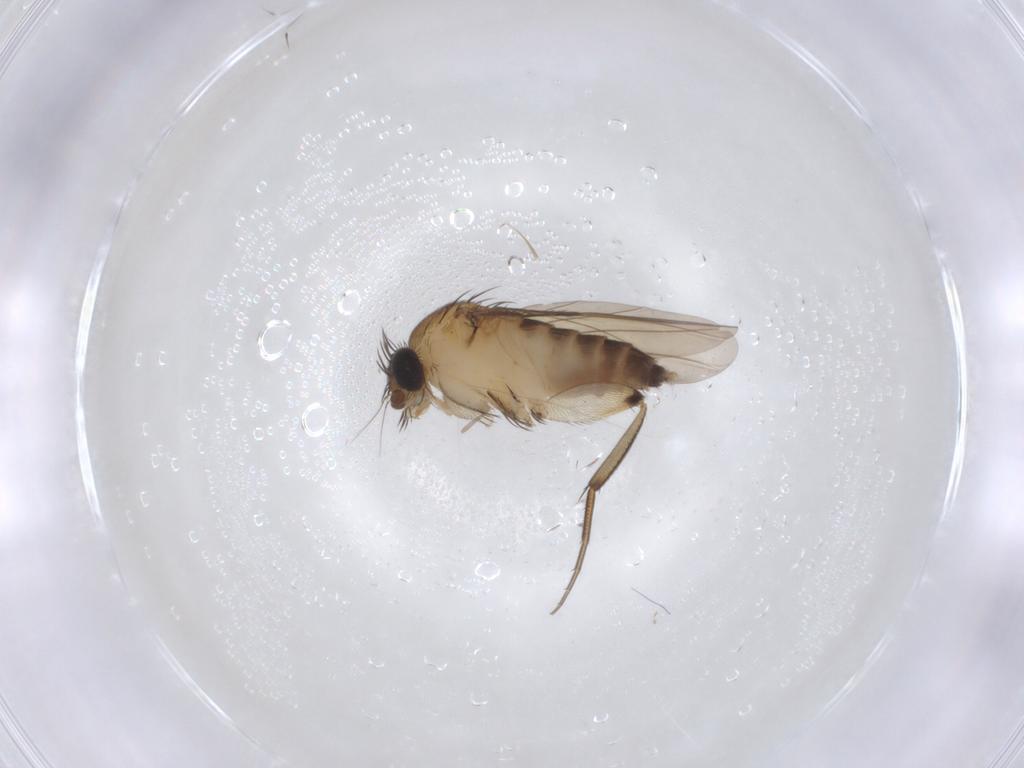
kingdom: Animalia
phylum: Arthropoda
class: Insecta
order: Diptera
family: Phoridae
